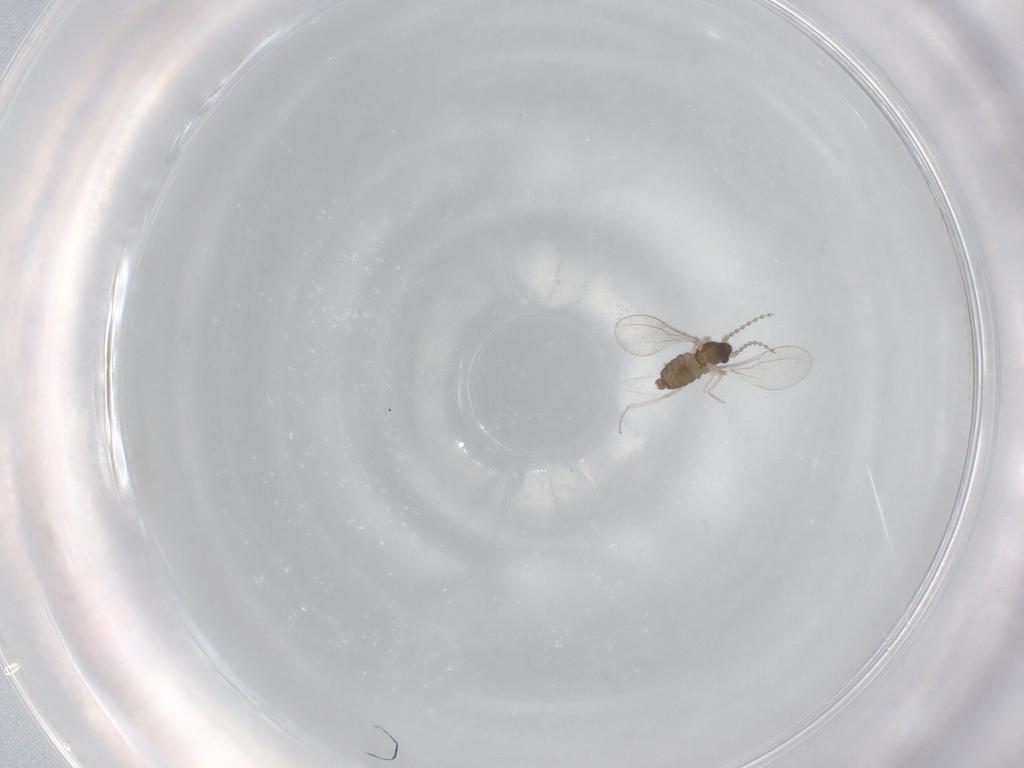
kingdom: Animalia
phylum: Arthropoda
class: Insecta
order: Diptera
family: Cecidomyiidae
